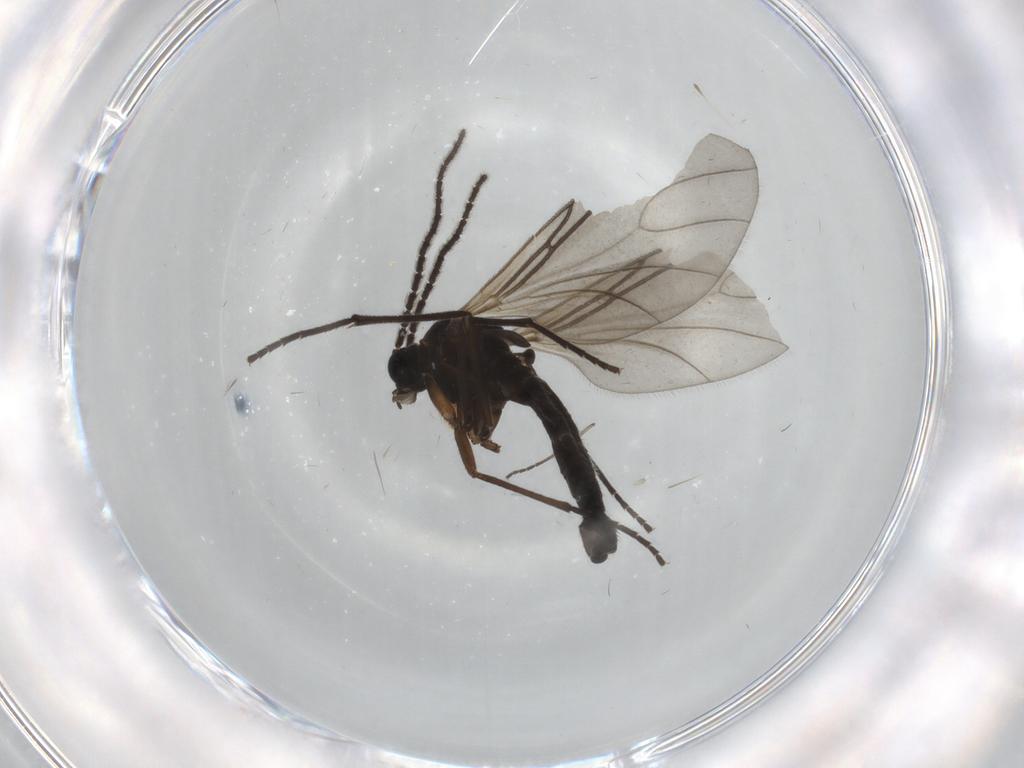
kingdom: Animalia
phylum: Arthropoda
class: Insecta
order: Diptera
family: Sciaridae
